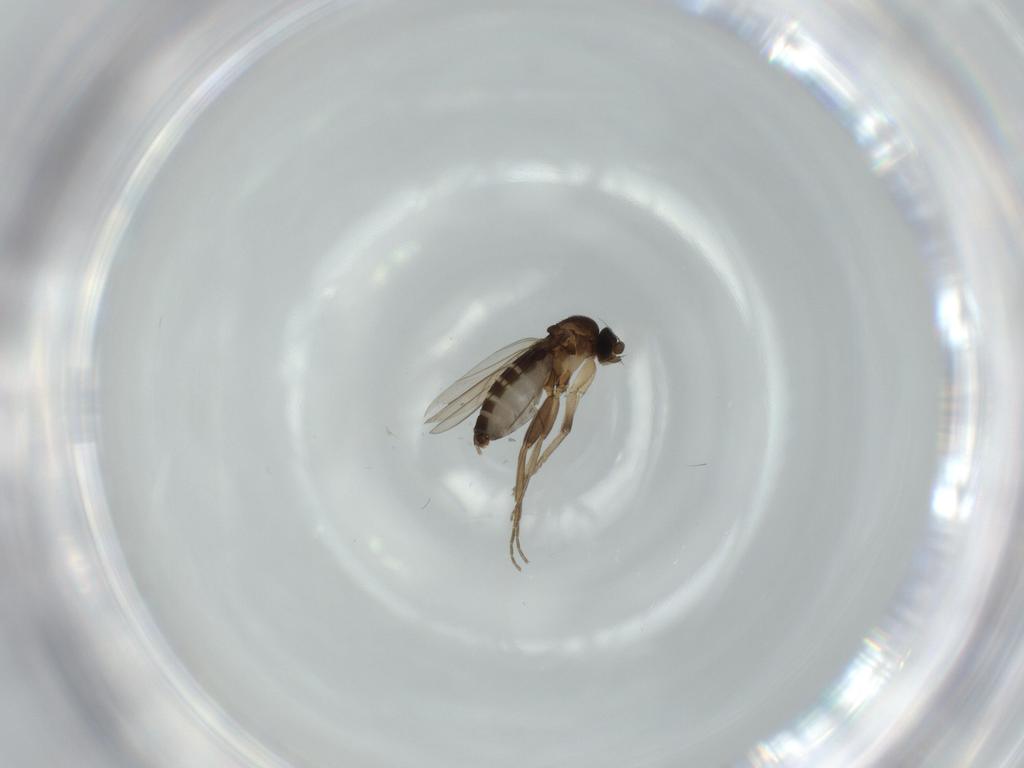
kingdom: Animalia
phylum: Arthropoda
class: Insecta
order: Diptera
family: Phoridae
